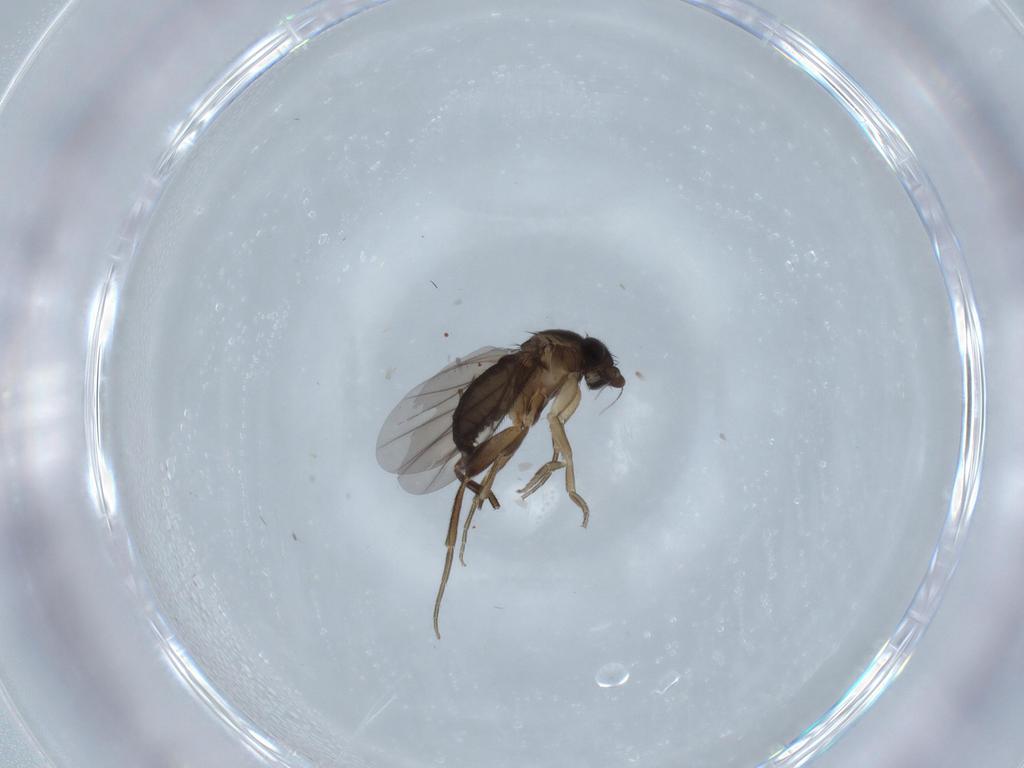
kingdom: Animalia
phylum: Arthropoda
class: Insecta
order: Diptera
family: Phoridae
